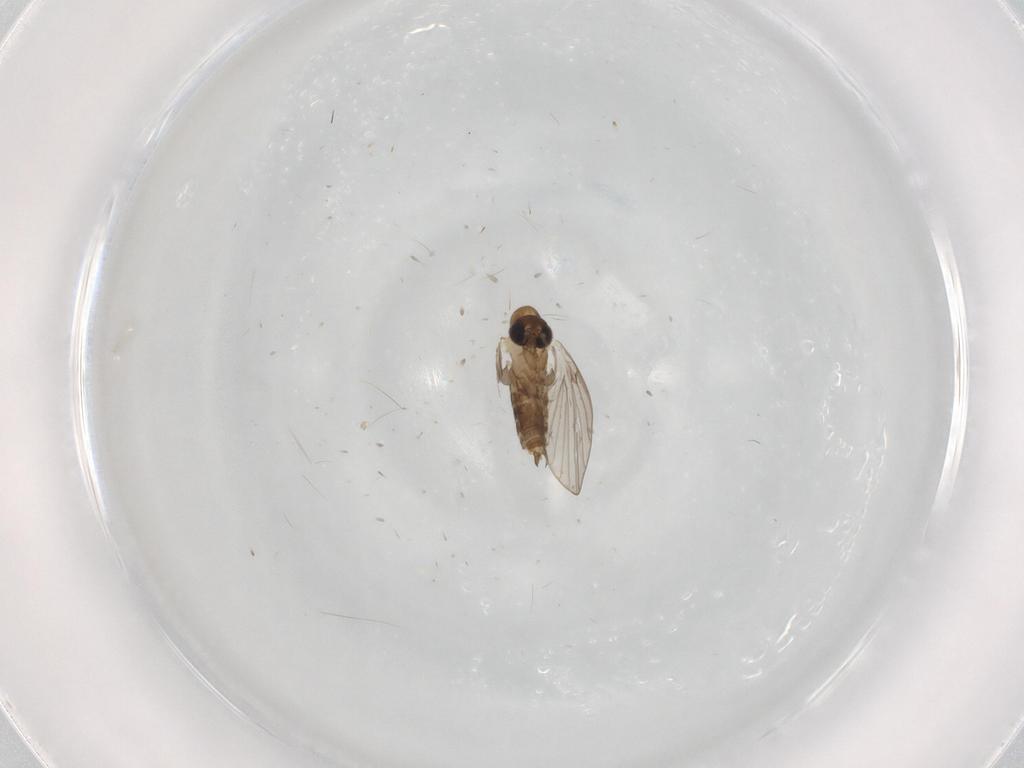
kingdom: Animalia
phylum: Arthropoda
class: Insecta
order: Diptera
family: Psychodidae
